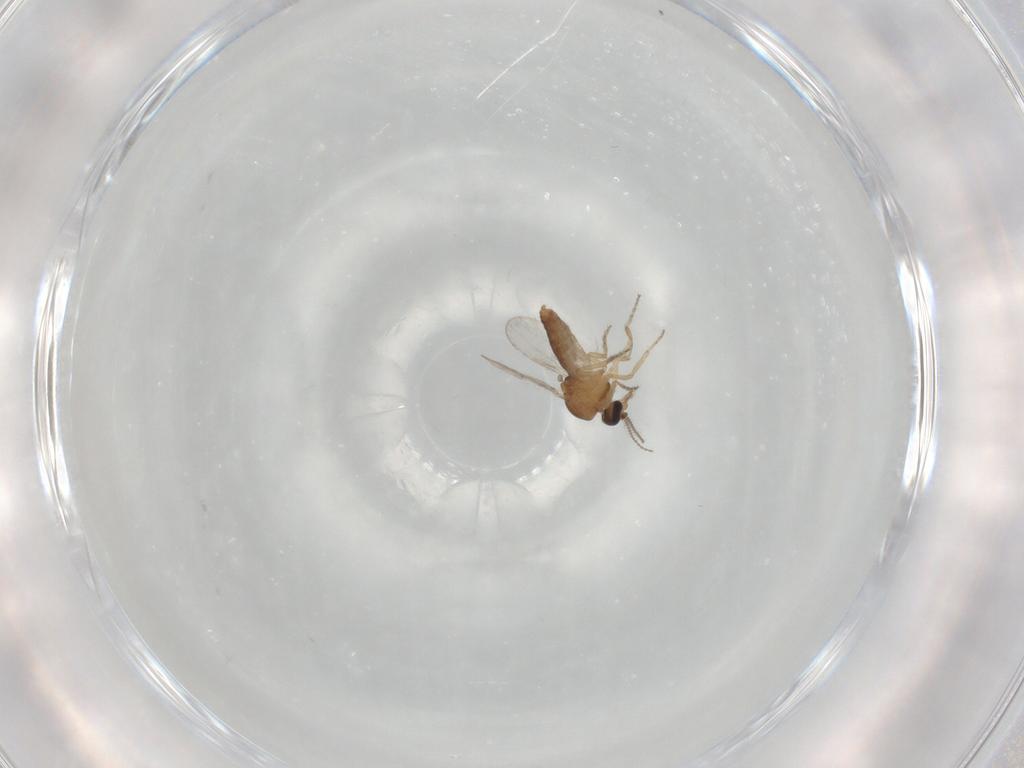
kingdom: Animalia
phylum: Arthropoda
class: Insecta
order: Diptera
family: Ceratopogonidae
